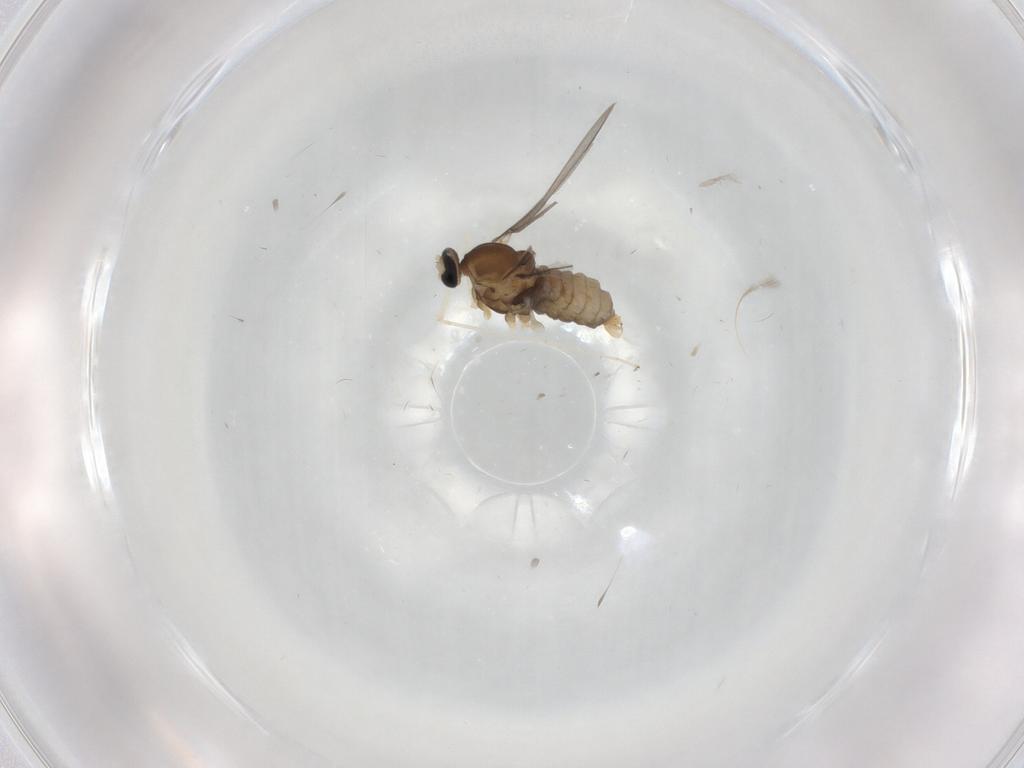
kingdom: Animalia
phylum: Arthropoda
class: Insecta
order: Diptera
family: Cecidomyiidae
